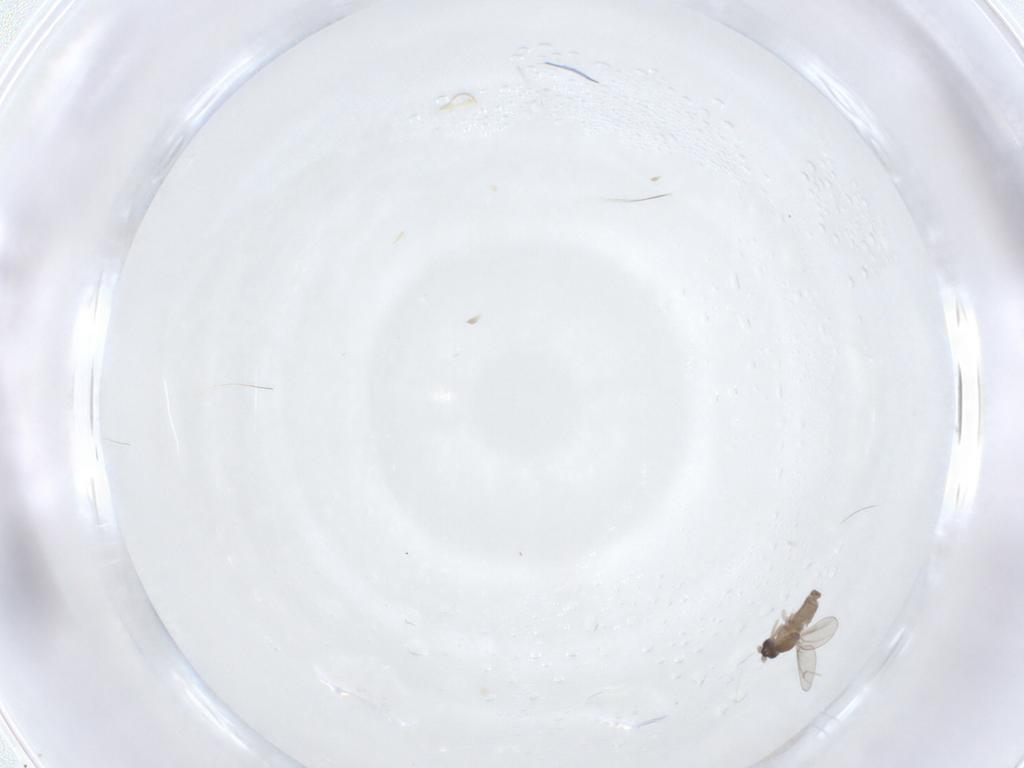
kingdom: Animalia
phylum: Arthropoda
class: Insecta
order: Diptera
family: Cecidomyiidae
